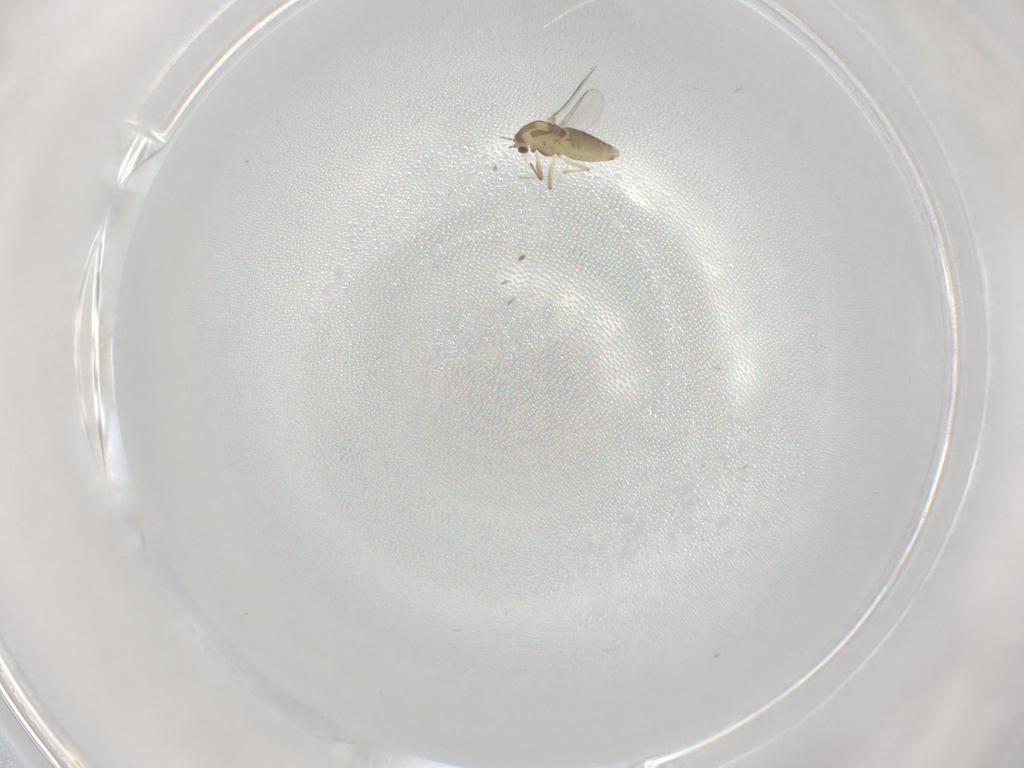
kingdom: Animalia
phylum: Arthropoda
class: Insecta
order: Diptera
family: Chironomidae
